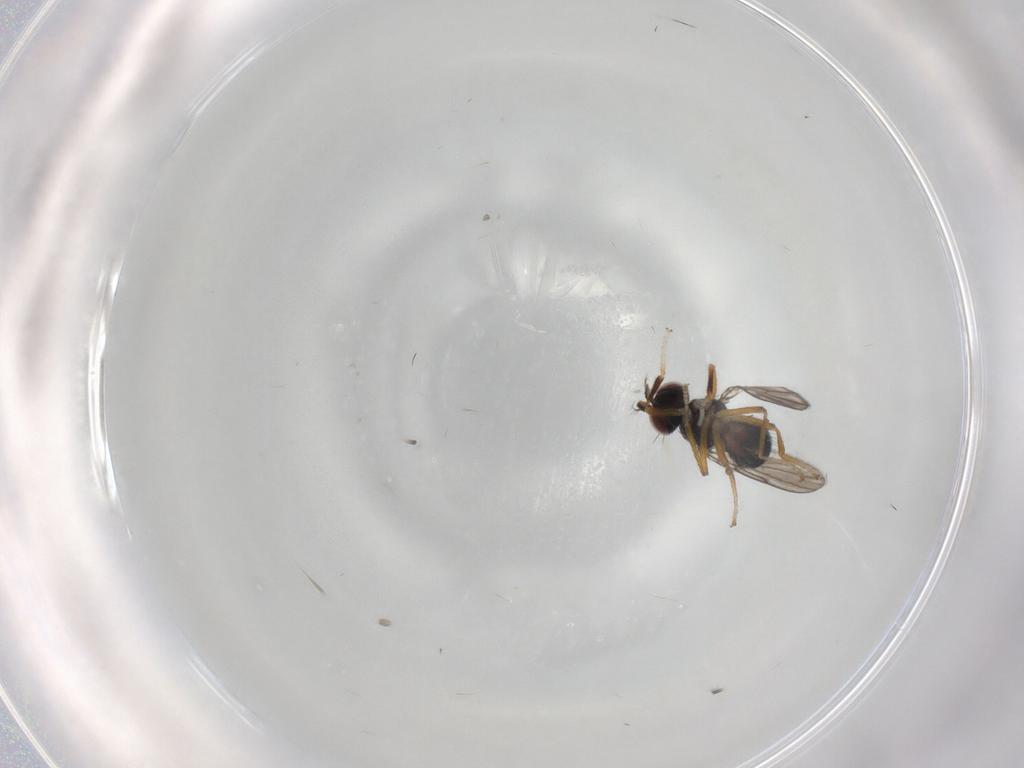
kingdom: Animalia
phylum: Arthropoda
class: Insecta
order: Diptera
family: Ephydridae
